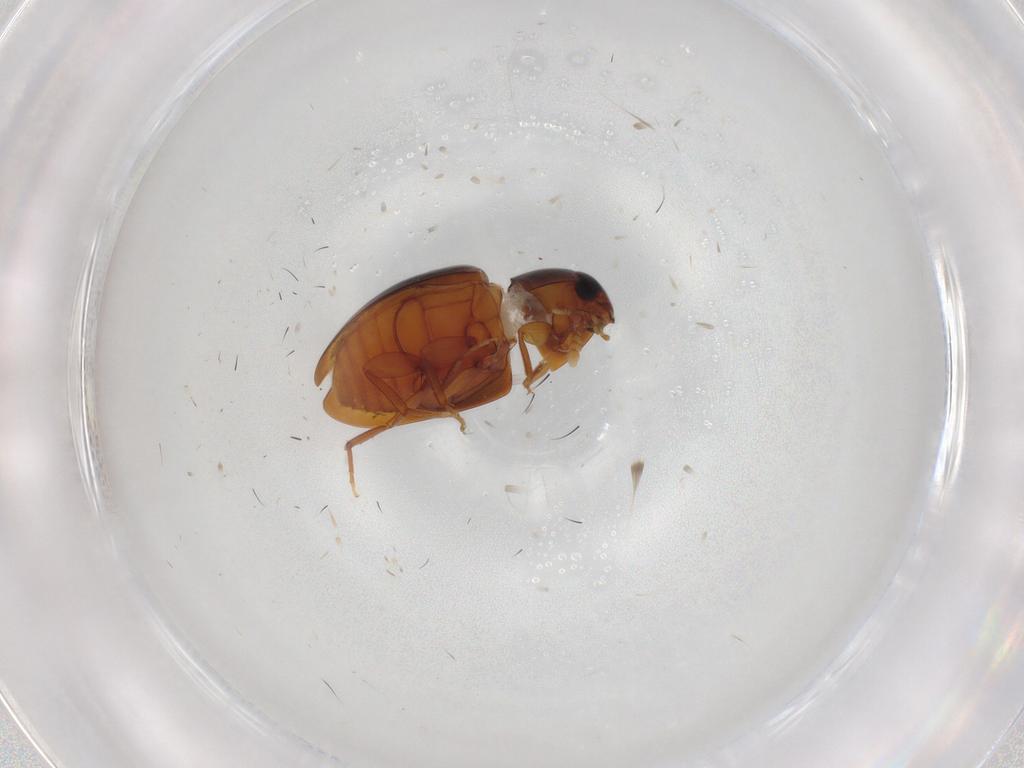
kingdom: Animalia
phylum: Arthropoda
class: Insecta
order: Coleoptera
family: Phalacridae
